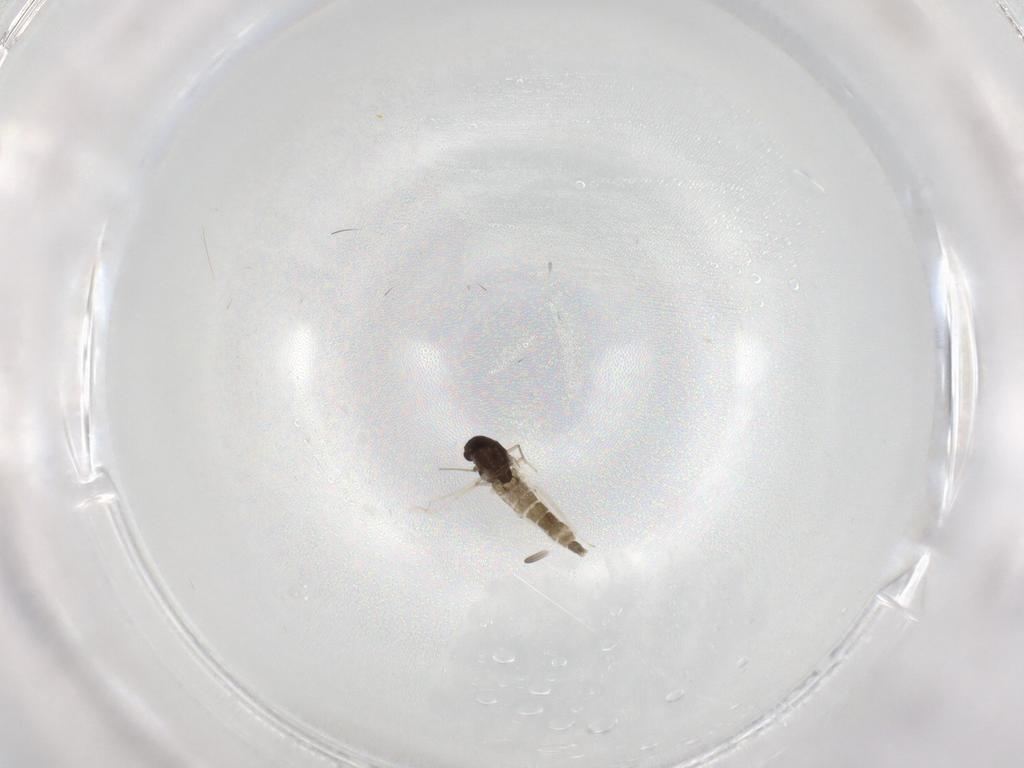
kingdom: Animalia
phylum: Arthropoda
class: Insecta
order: Diptera
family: Chironomidae
